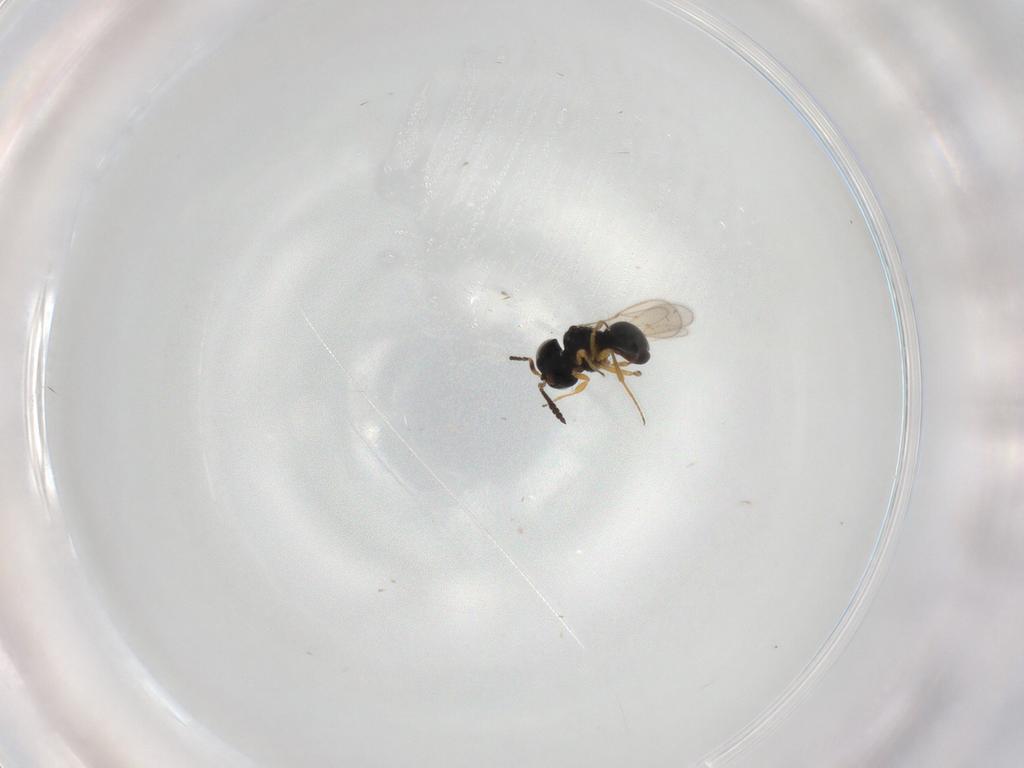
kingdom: Animalia
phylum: Arthropoda
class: Insecta
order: Hymenoptera
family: Scelionidae
